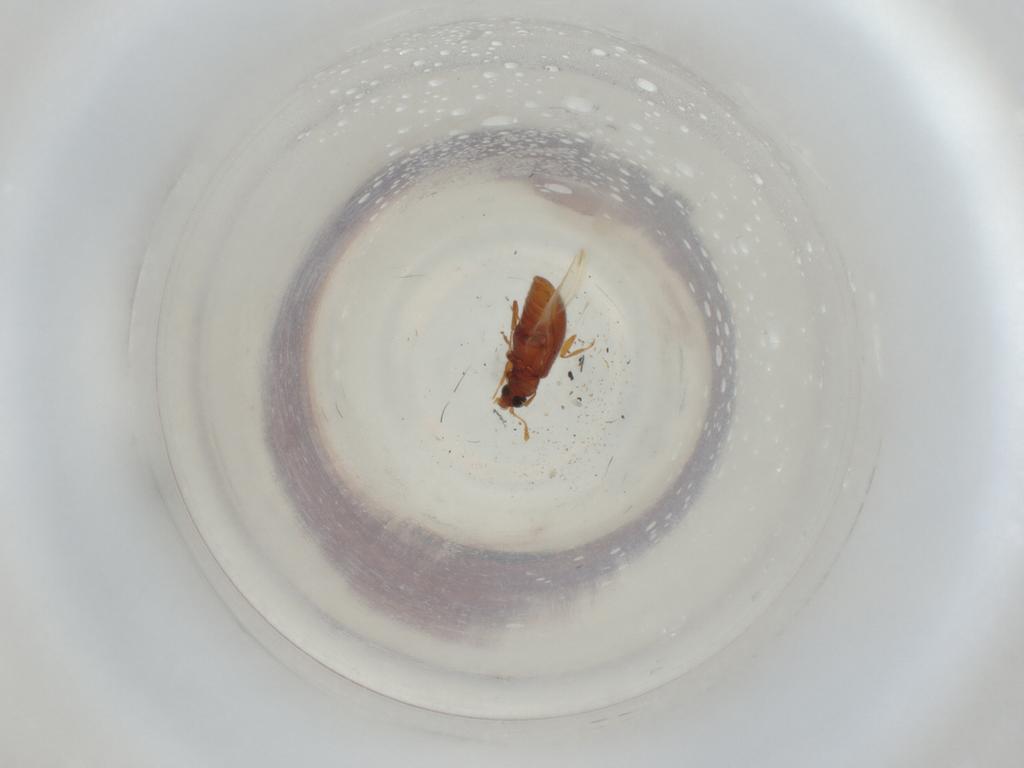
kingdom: Animalia
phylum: Arthropoda
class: Insecta
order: Coleoptera
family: Latridiidae
